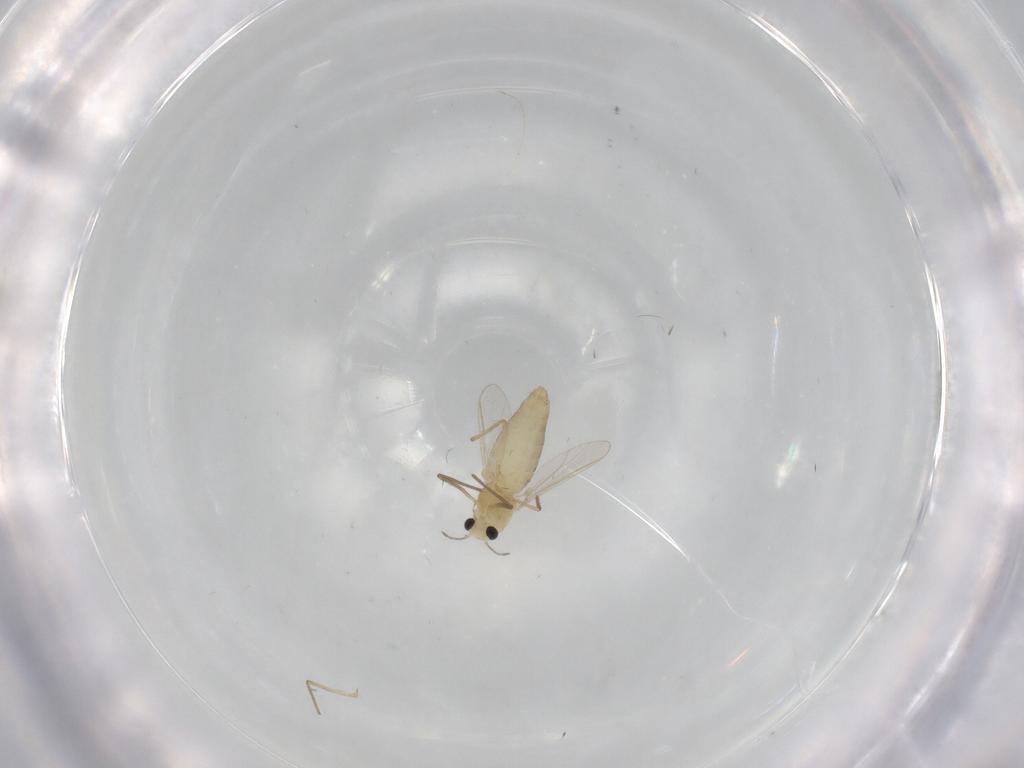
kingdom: Animalia
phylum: Arthropoda
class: Insecta
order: Diptera
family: Chironomidae
